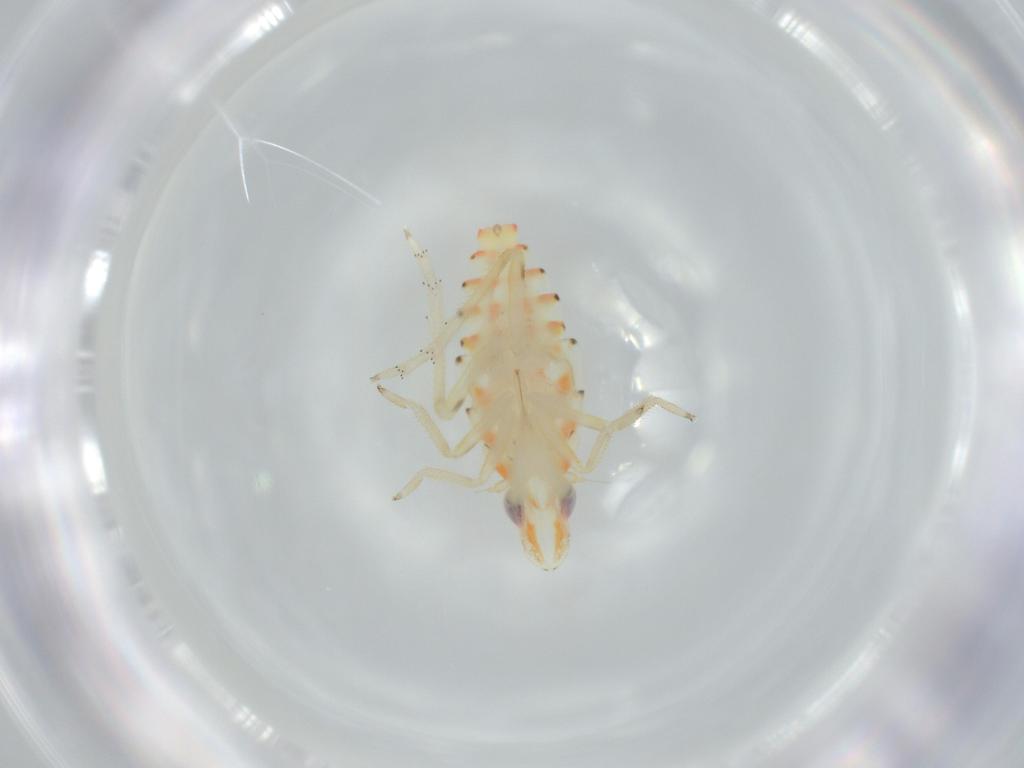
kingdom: Animalia
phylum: Arthropoda
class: Insecta
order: Hemiptera
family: Tropiduchidae
